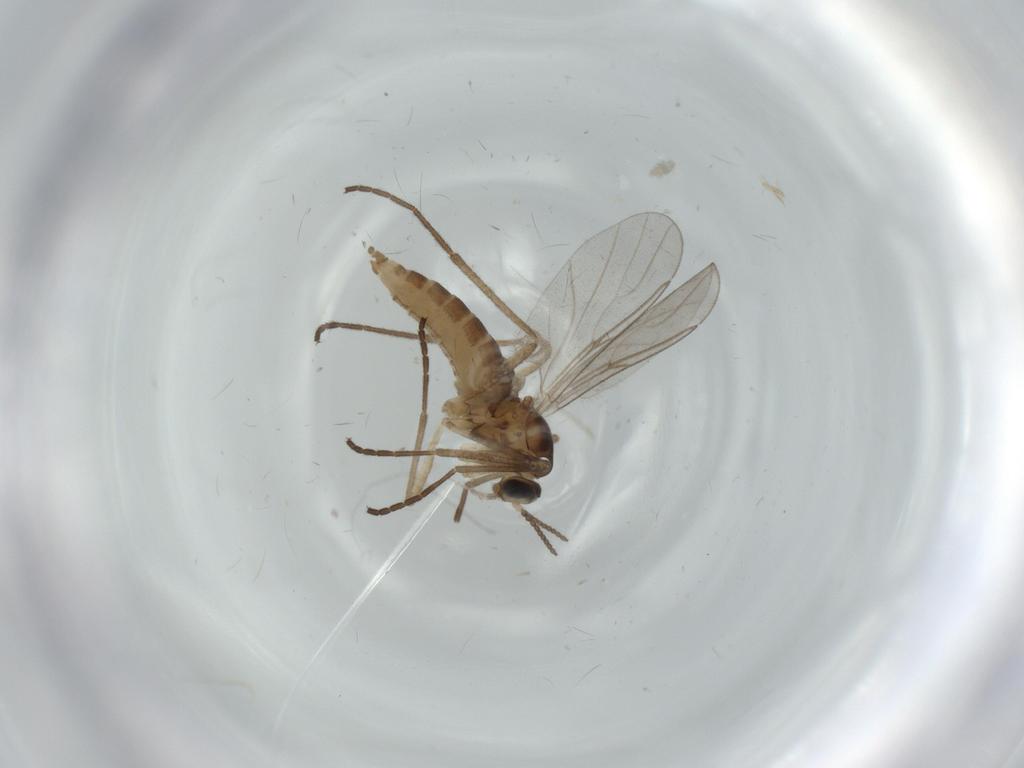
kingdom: Animalia
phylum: Arthropoda
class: Insecta
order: Diptera
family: Cecidomyiidae
